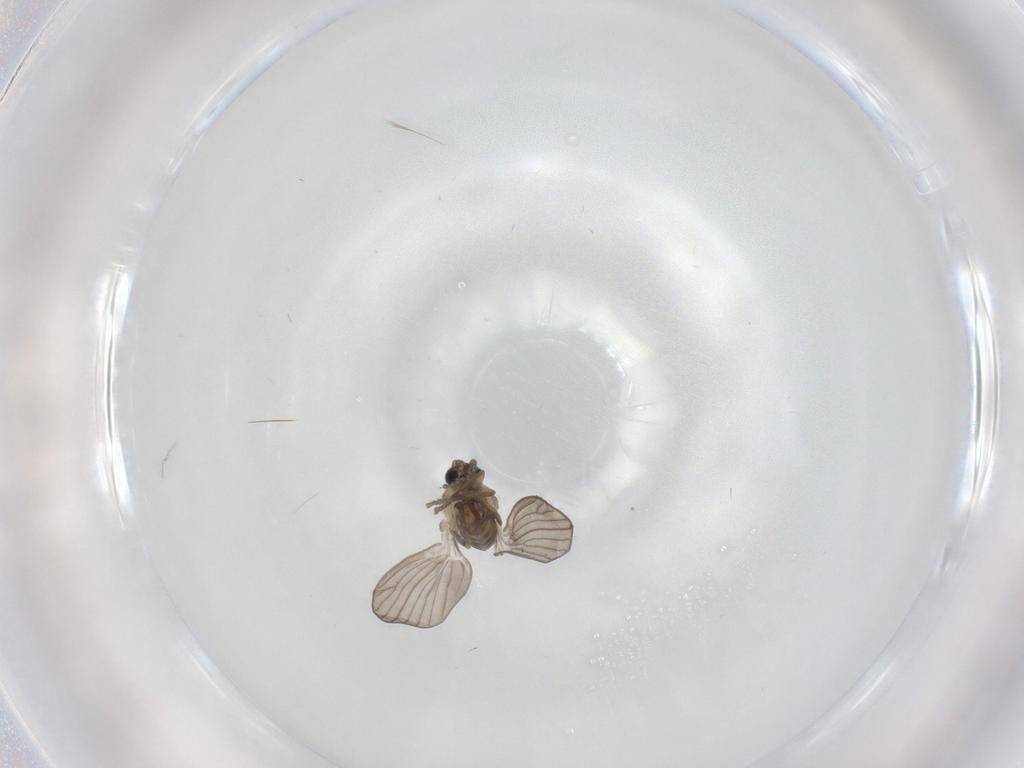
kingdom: Animalia
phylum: Arthropoda
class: Insecta
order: Diptera
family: Psychodidae
